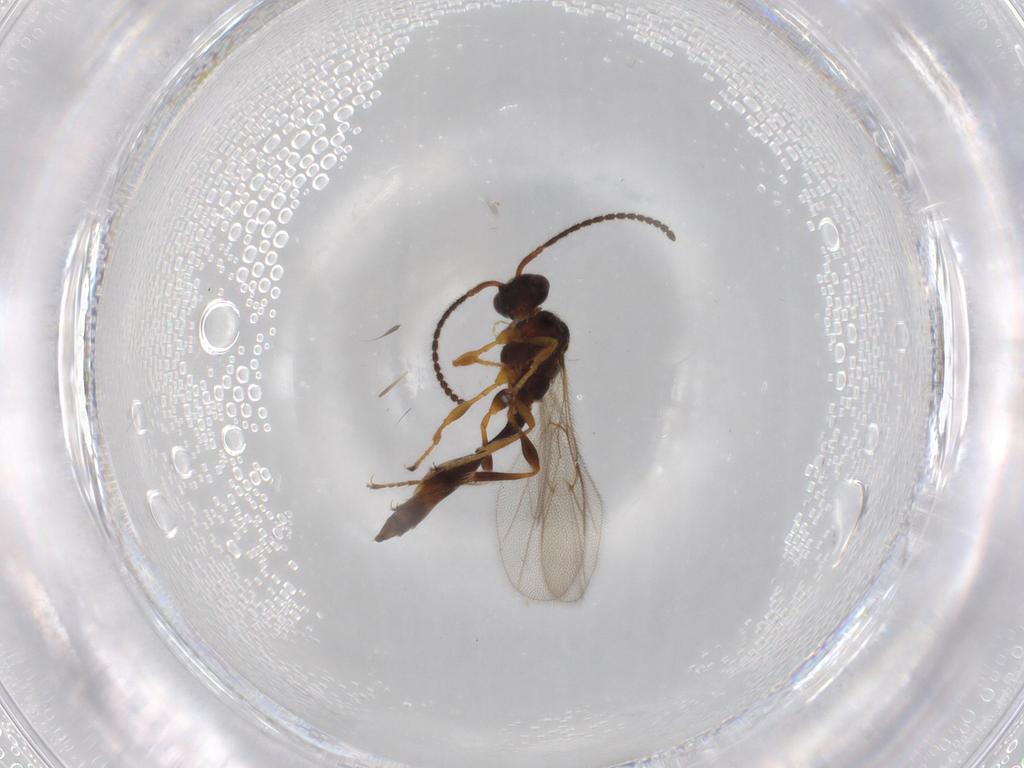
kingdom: Animalia
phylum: Arthropoda
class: Insecta
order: Hymenoptera
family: Diapriidae
